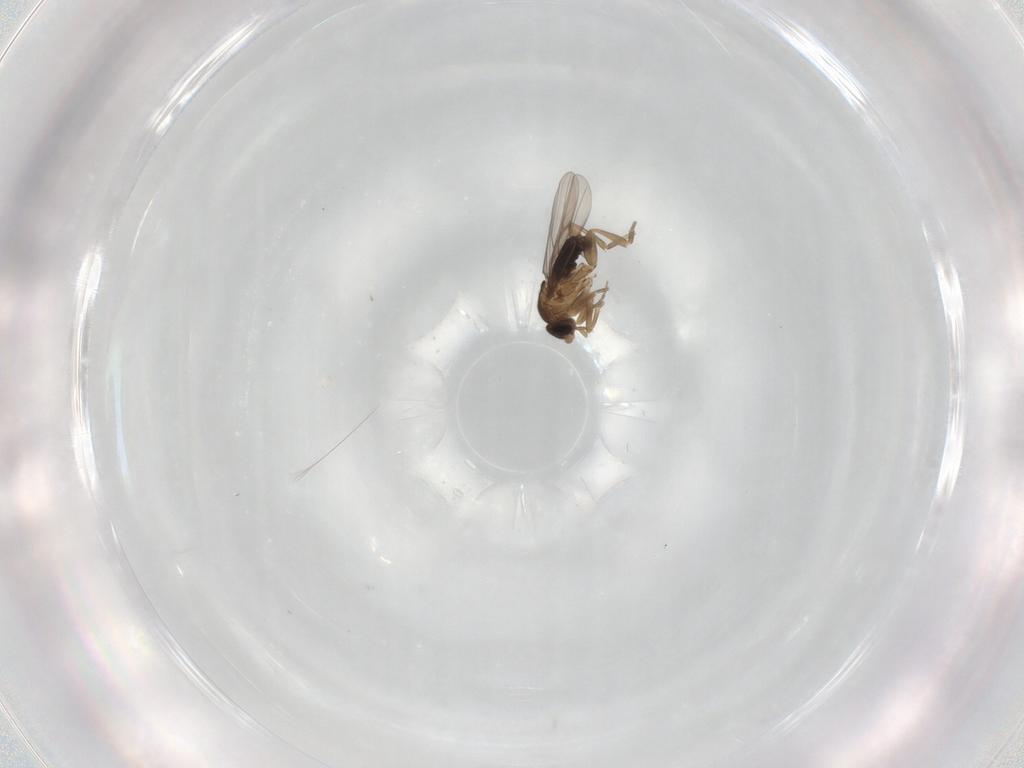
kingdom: Animalia
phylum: Arthropoda
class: Insecta
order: Diptera
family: Phoridae
